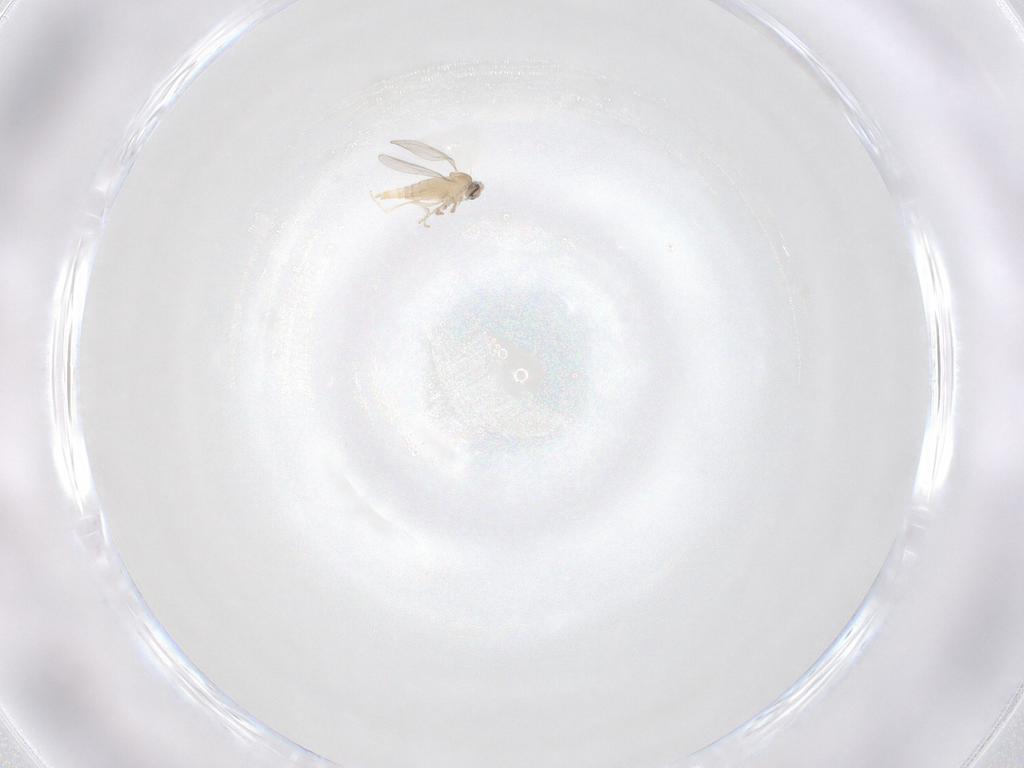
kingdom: Animalia
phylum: Arthropoda
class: Insecta
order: Diptera
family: Cecidomyiidae
